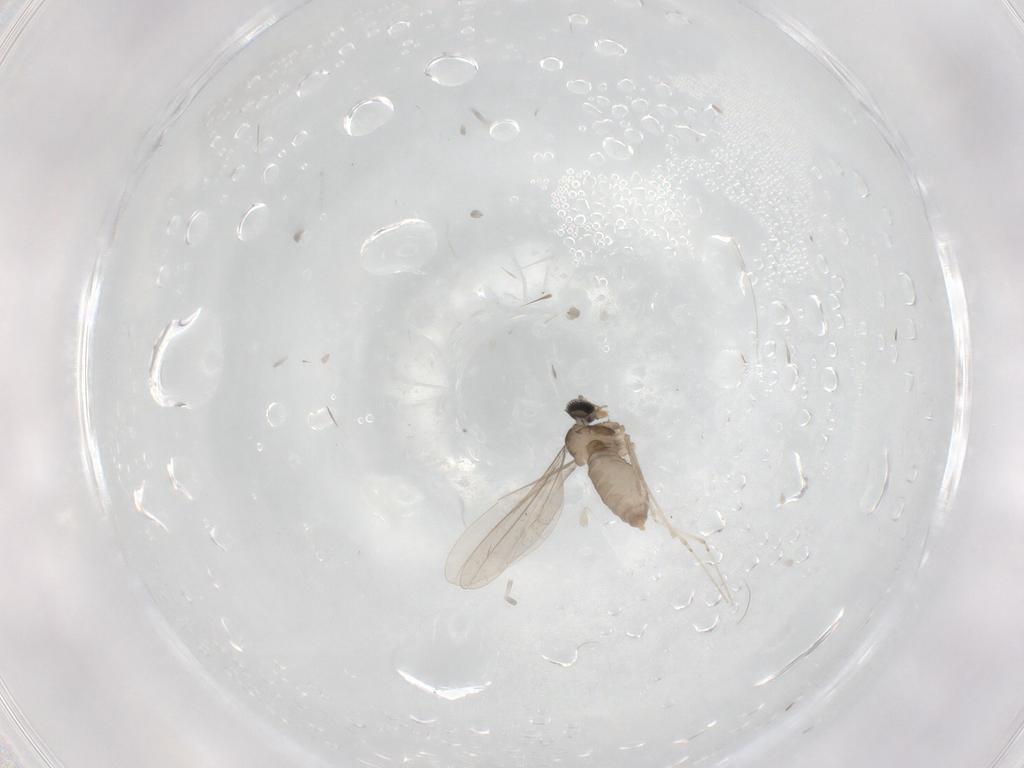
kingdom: Animalia
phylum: Arthropoda
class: Insecta
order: Diptera
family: Cecidomyiidae
